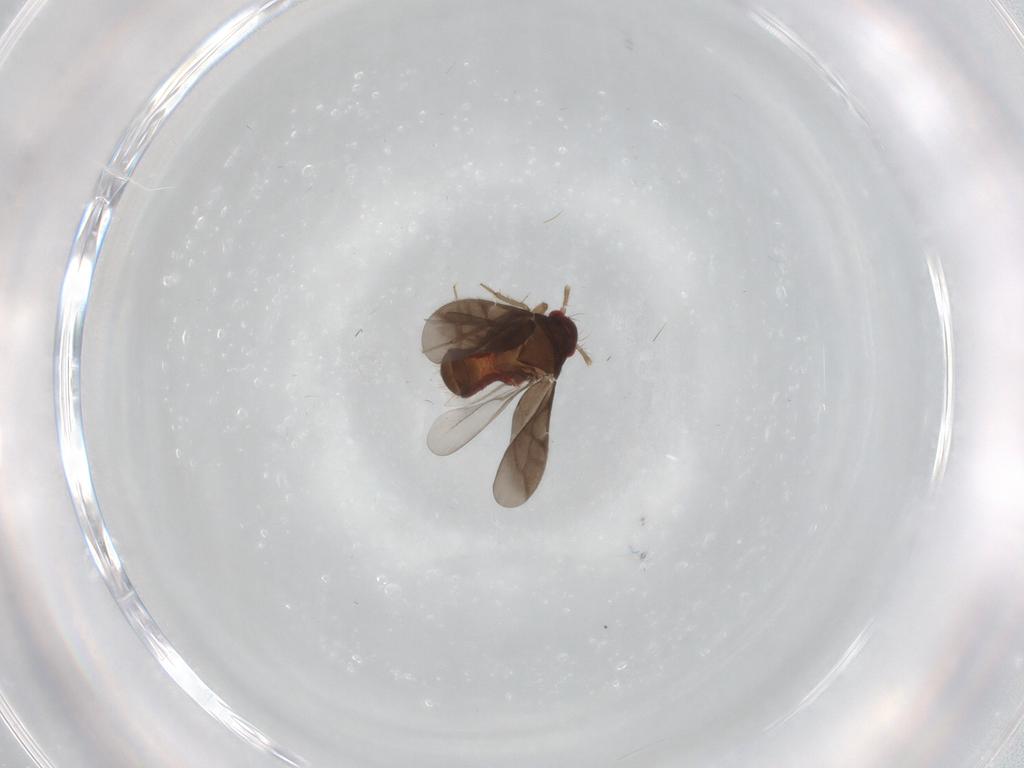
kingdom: Animalia
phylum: Arthropoda
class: Insecta
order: Hemiptera
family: Ceratocombidae
